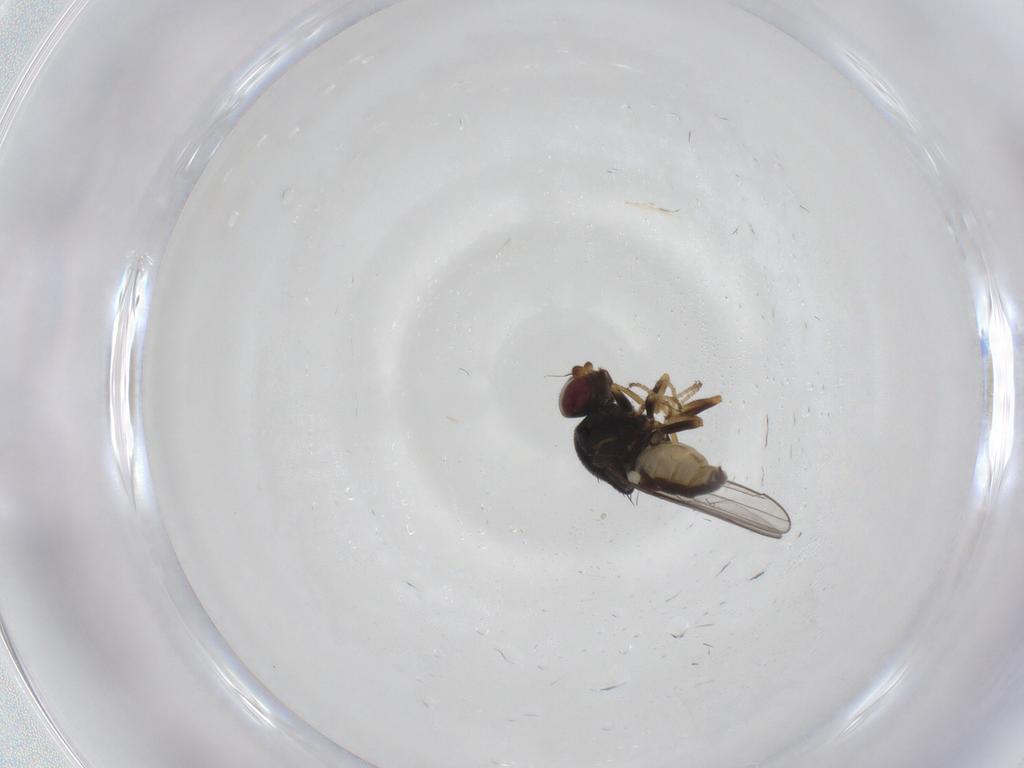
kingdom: Animalia
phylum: Arthropoda
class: Insecta
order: Diptera
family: Chloropidae
